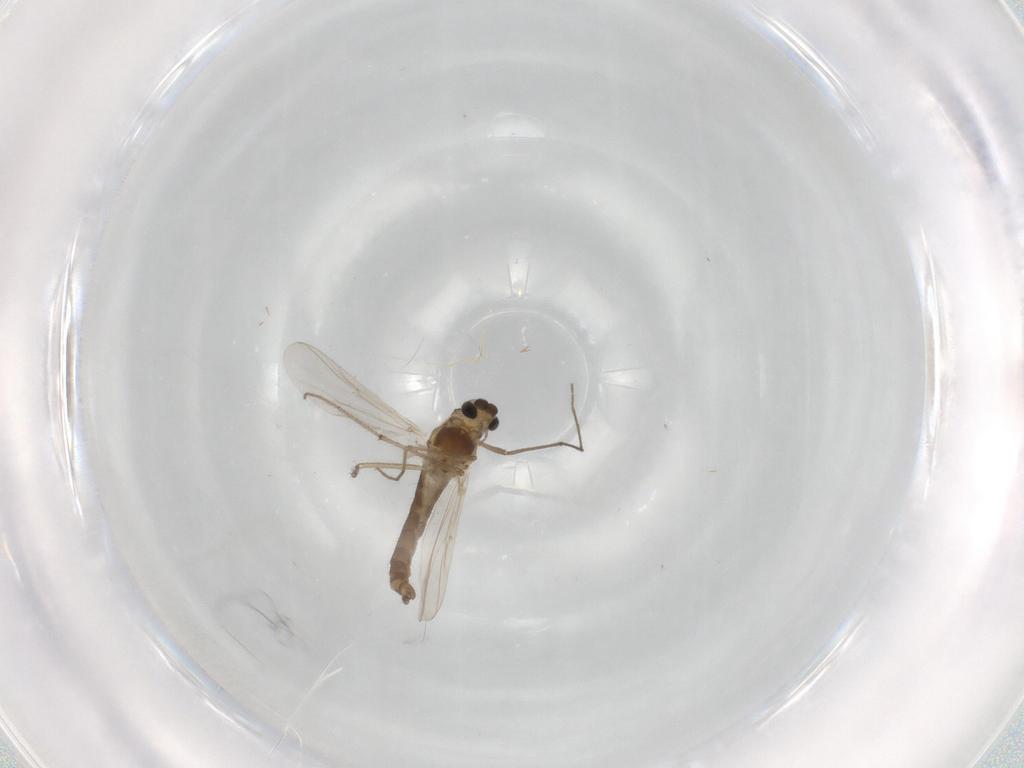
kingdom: Animalia
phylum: Arthropoda
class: Insecta
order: Diptera
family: Chironomidae
